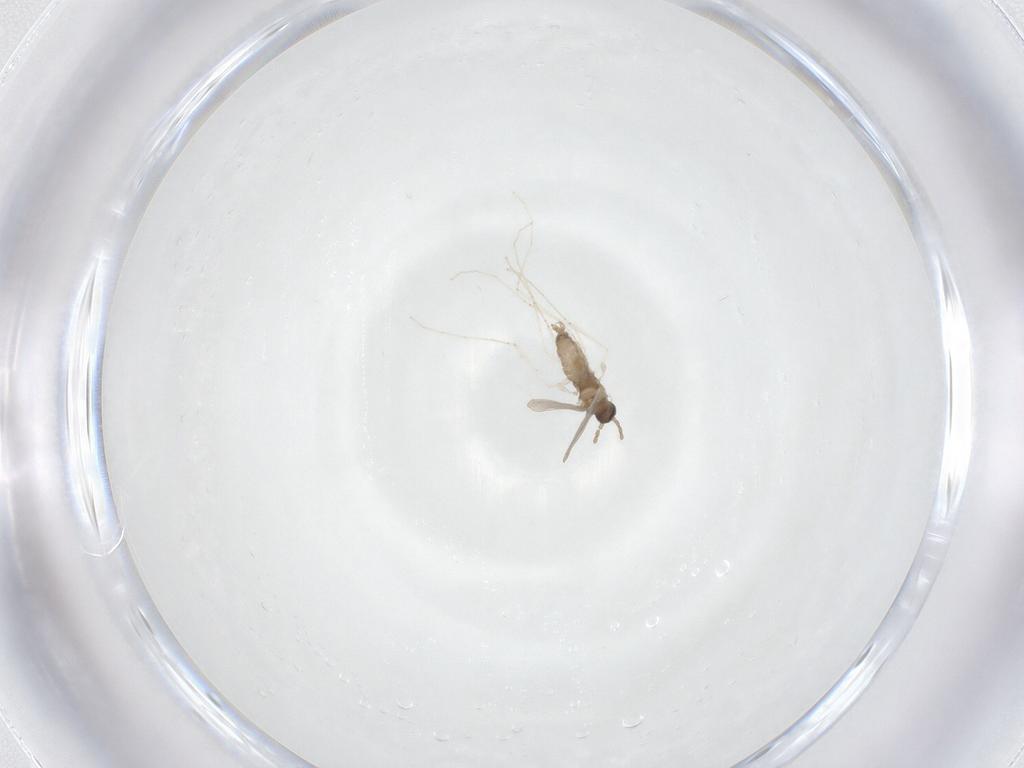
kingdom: Animalia
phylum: Arthropoda
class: Insecta
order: Diptera
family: Cecidomyiidae
